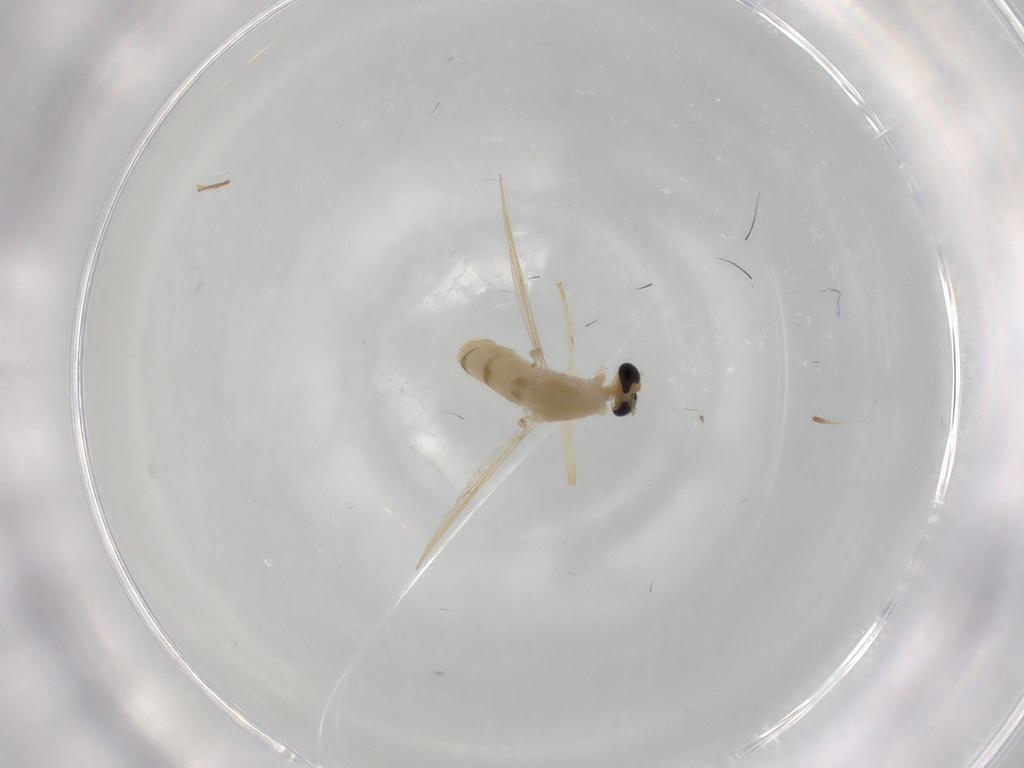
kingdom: Animalia
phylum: Arthropoda
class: Insecta
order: Diptera
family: Chironomidae
